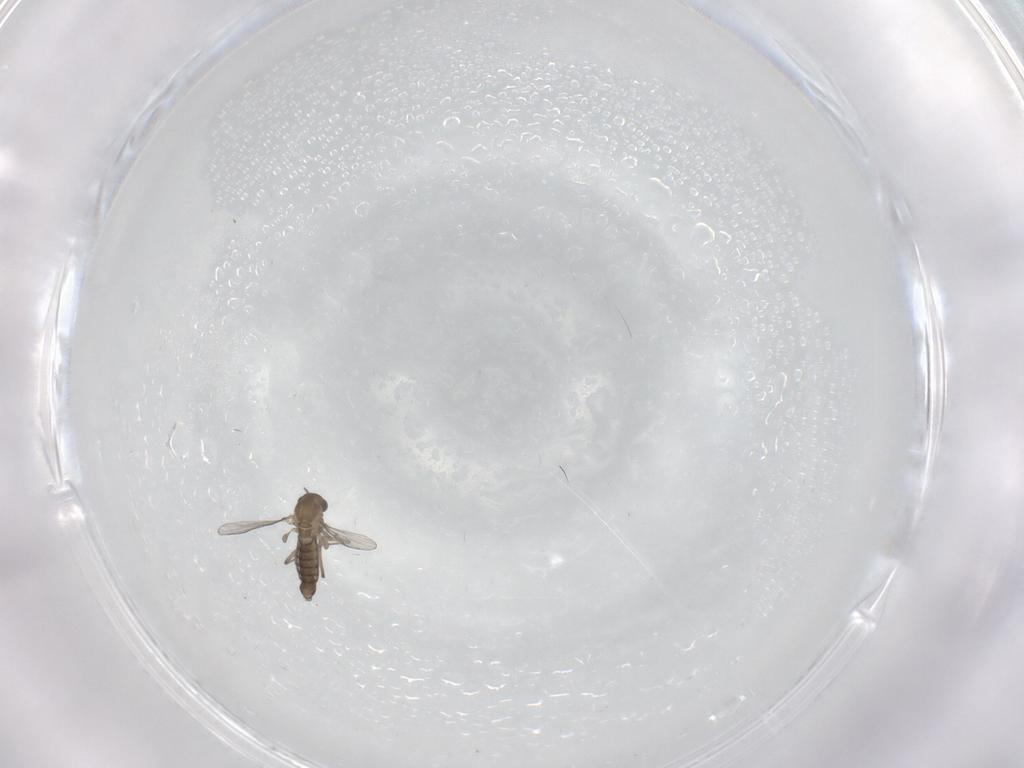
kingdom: Animalia
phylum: Arthropoda
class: Insecta
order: Diptera
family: Chironomidae
